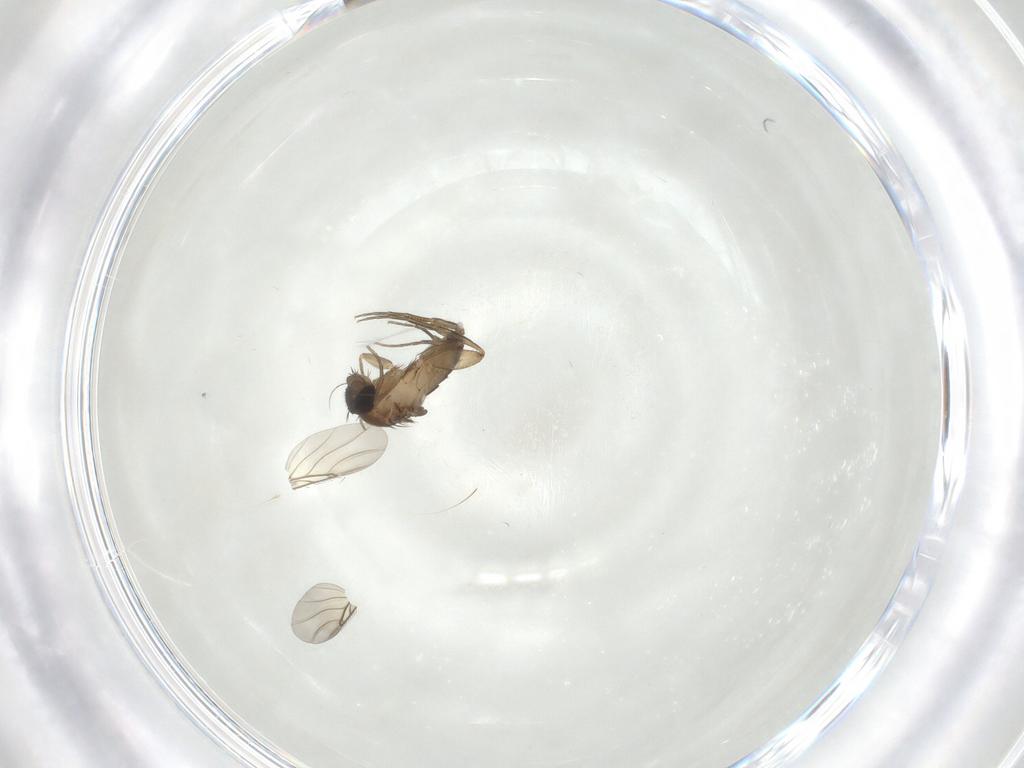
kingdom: Animalia
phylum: Arthropoda
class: Insecta
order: Diptera
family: Phoridae
